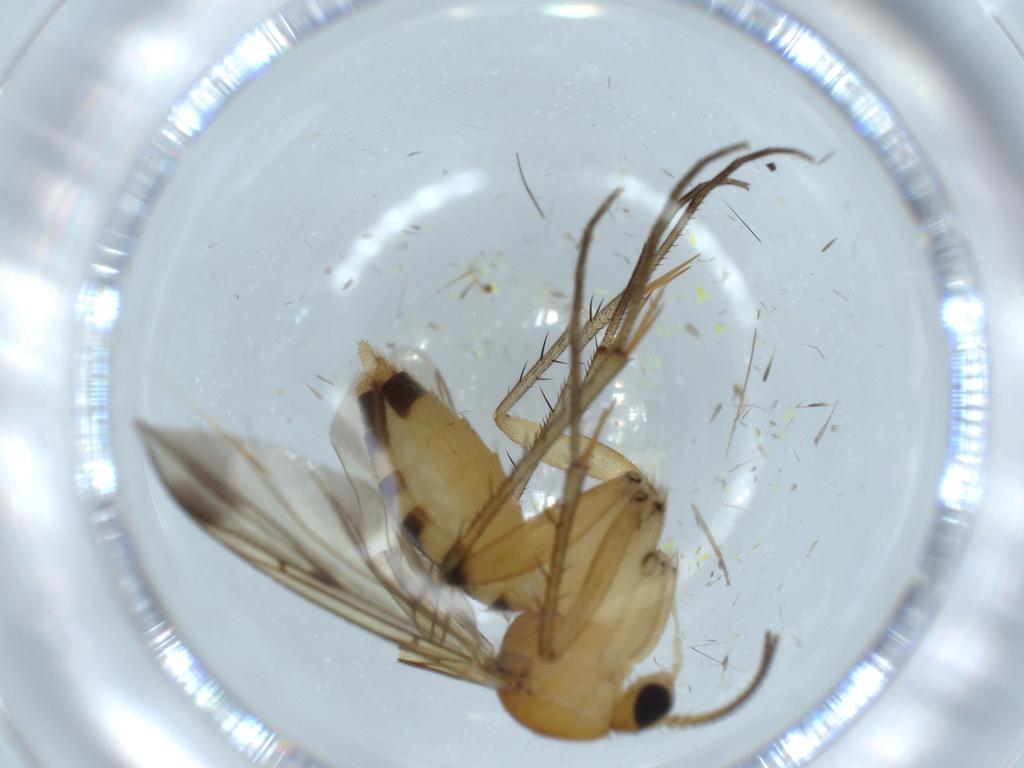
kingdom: Animalia
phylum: Arthropoda
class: Insecta
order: Diptera
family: Mycetophilidae
